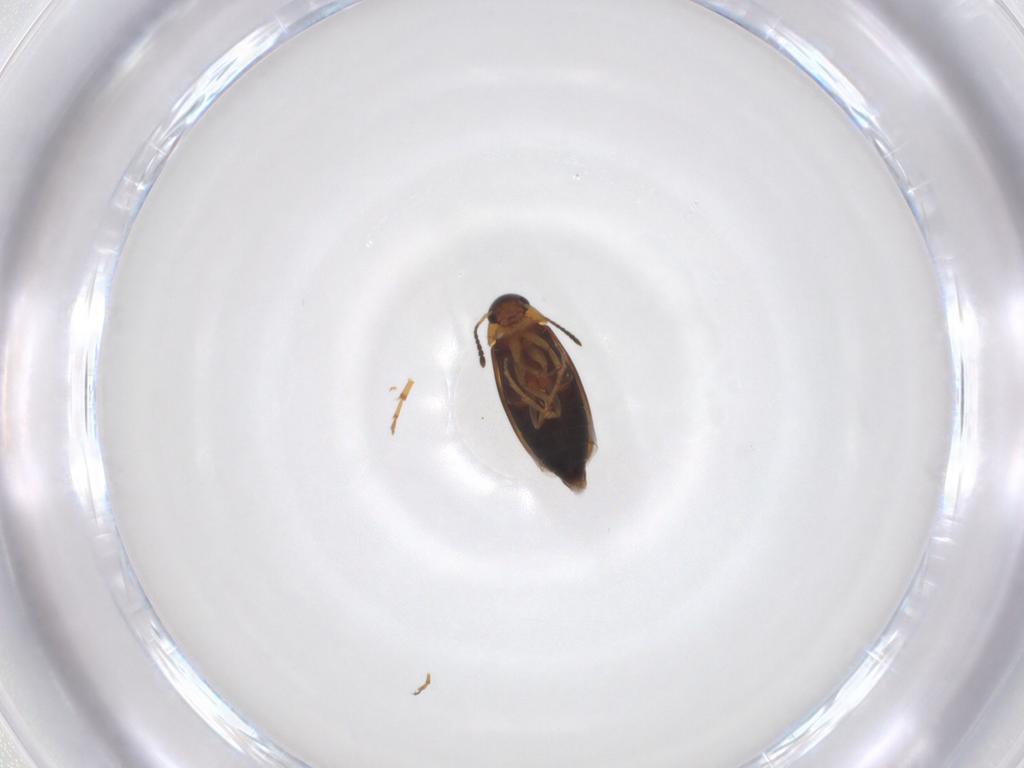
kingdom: Animalia
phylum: Arthropoda
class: Insecta
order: Coleoptera
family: Scraptiidae
